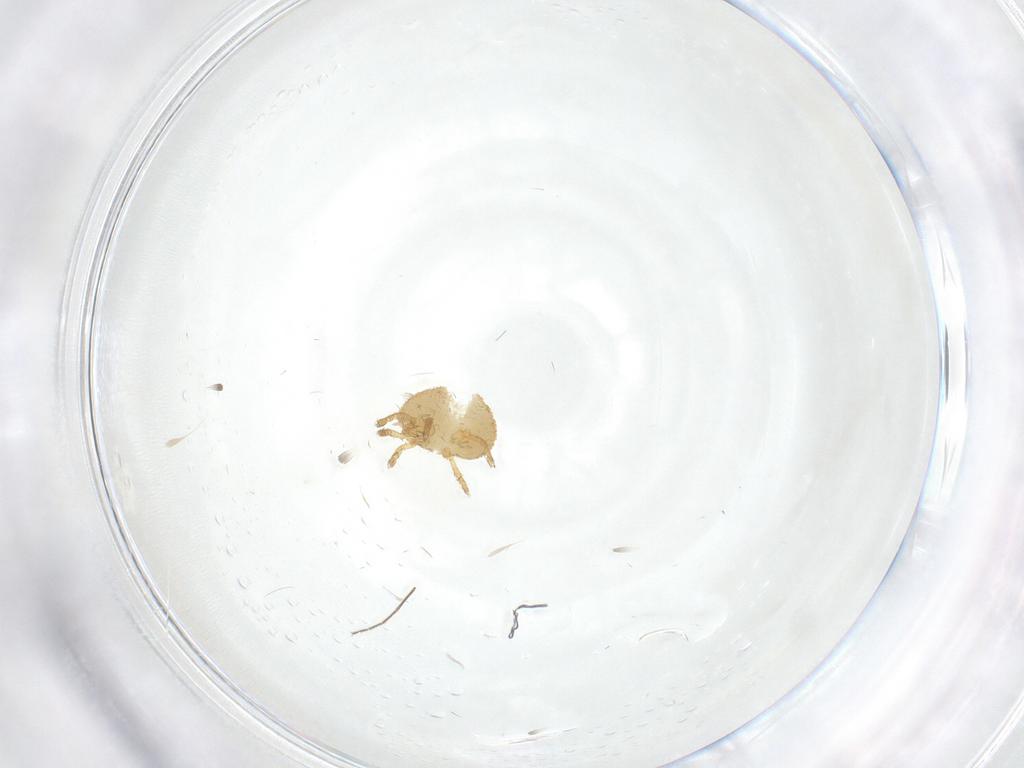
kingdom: Animalia
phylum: Arthropoda
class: Arachnida
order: Trombidiformes
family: Calyptostomatidae
